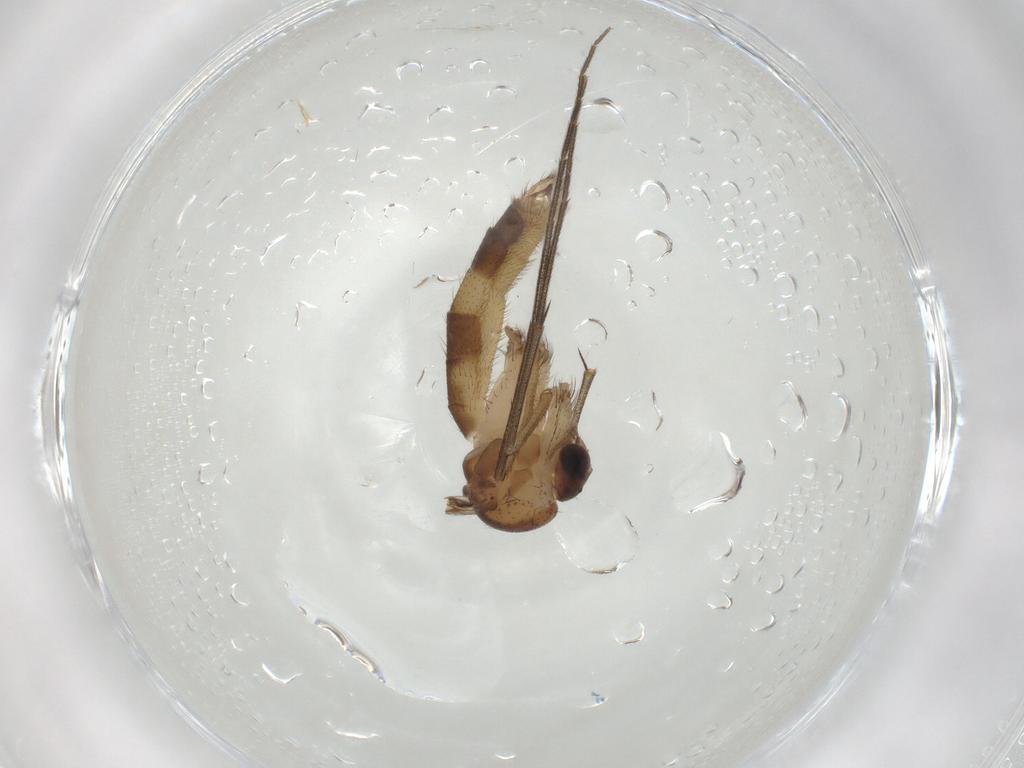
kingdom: Animalia
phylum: Arthropoda
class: Insecta
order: Diptera
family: Mycetophilidae
